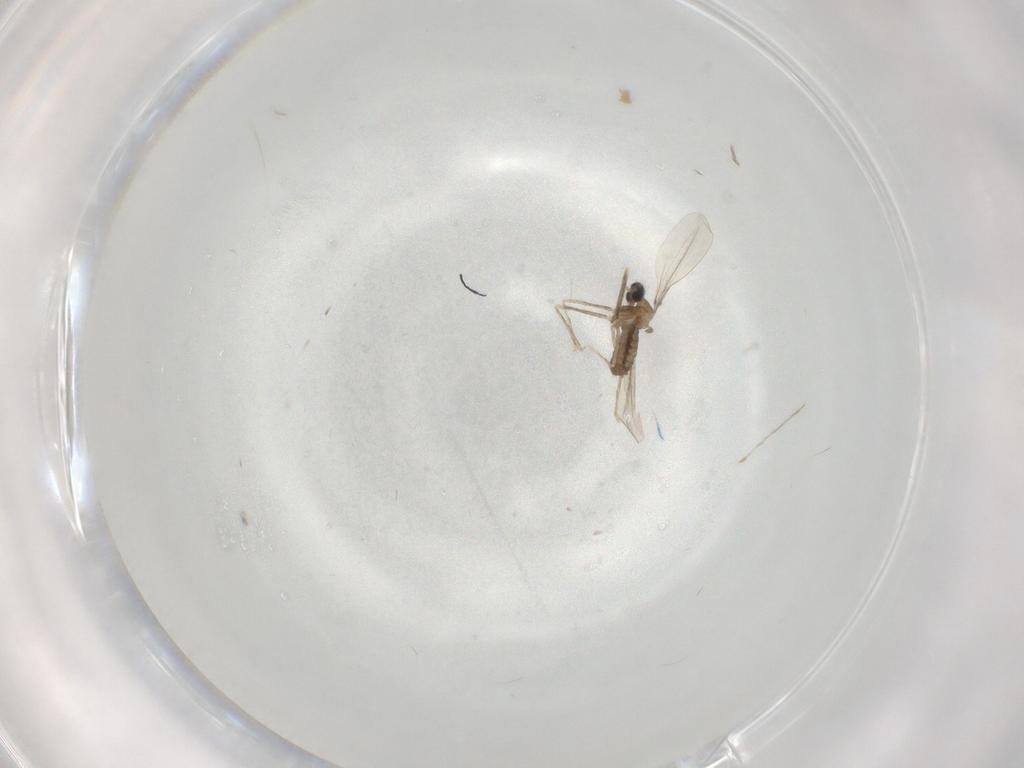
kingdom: Animalia
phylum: Arthropoda
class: Insecta
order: Diptera
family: Cecidomyiidae
